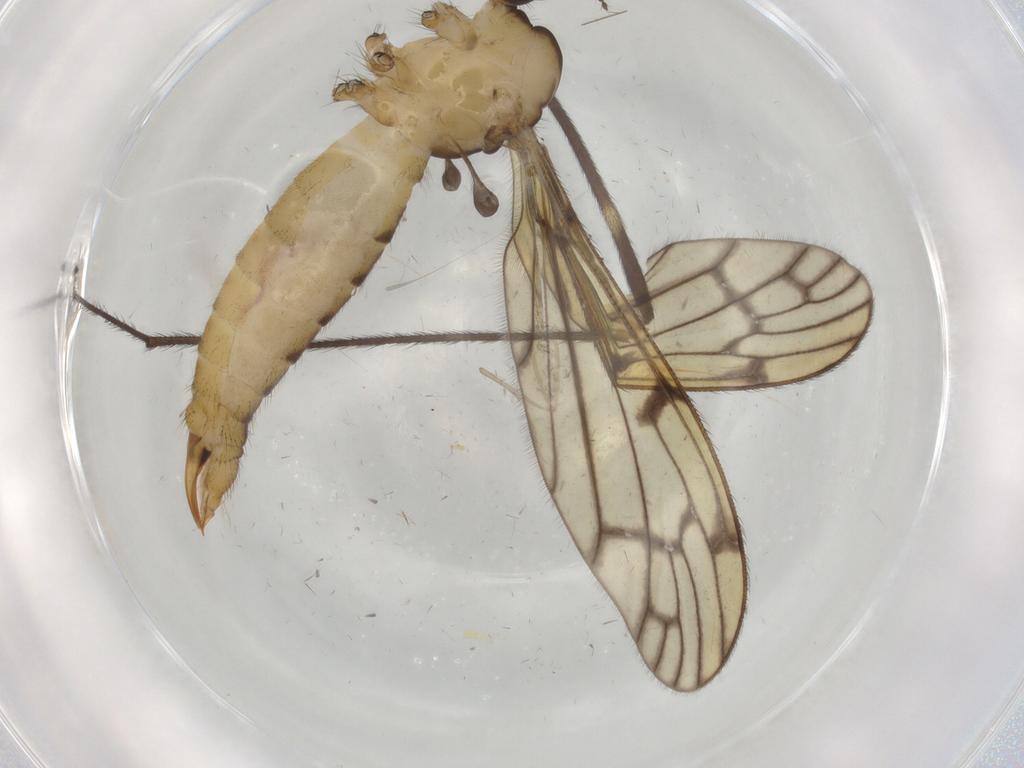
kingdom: Animalia
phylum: Arthropoda
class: Insecta
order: Diptera
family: Limoniidae
